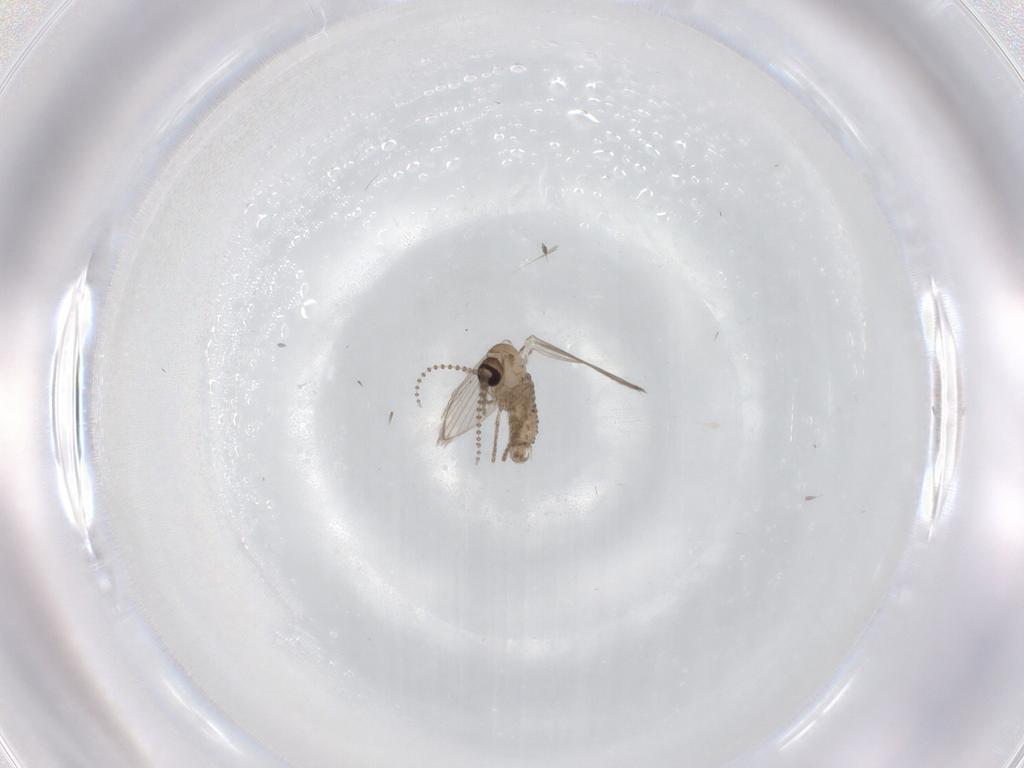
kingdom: Animalia
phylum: Arthropoda
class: Insecta
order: Diptera
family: Psychodidae
